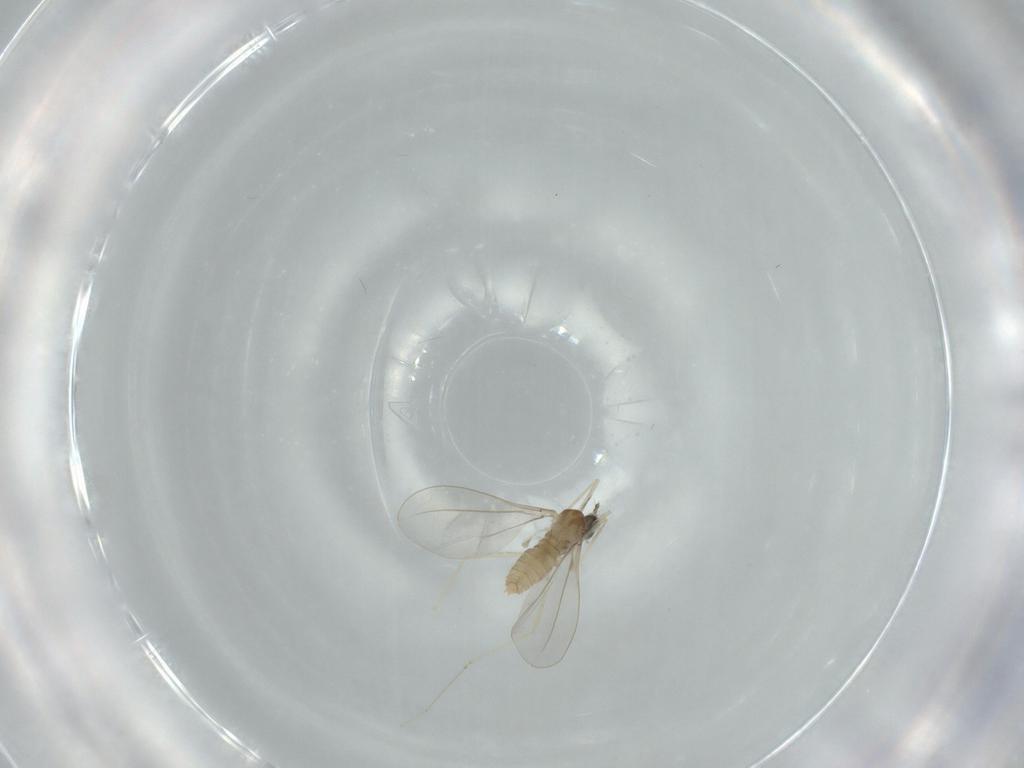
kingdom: Animalia
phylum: Arthropoda
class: Insecta
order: Diptera
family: Cecidomyiidae
